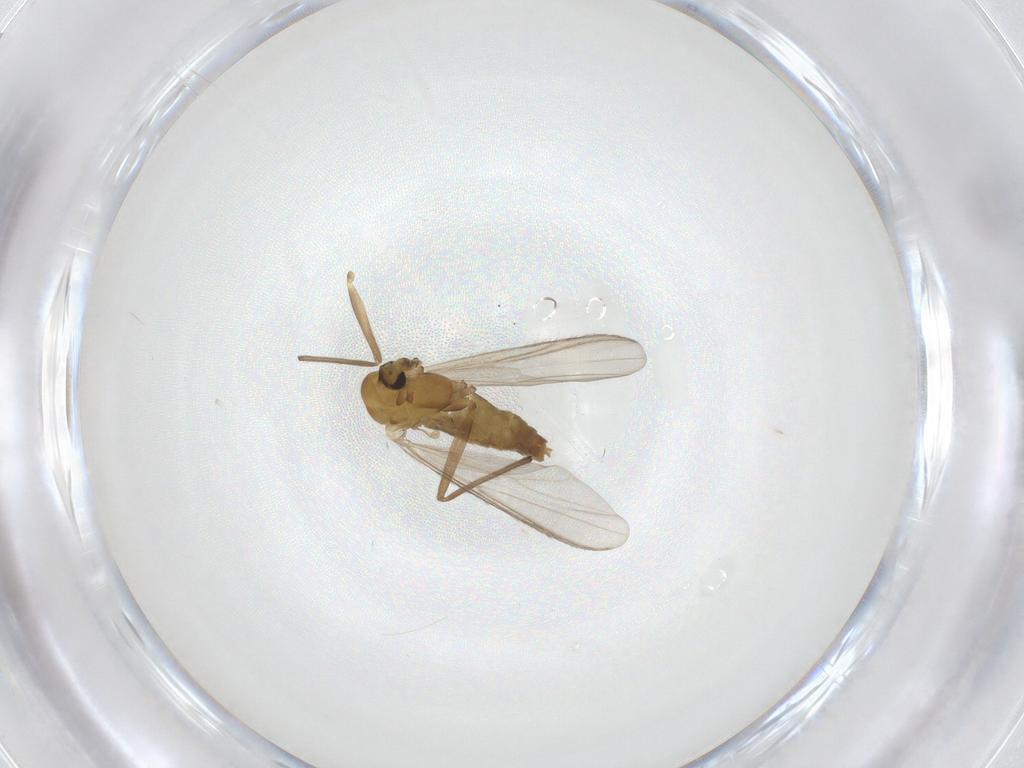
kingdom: Animalia
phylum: Arthropoda
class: Insecta
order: Diptera
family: Chironomidae
